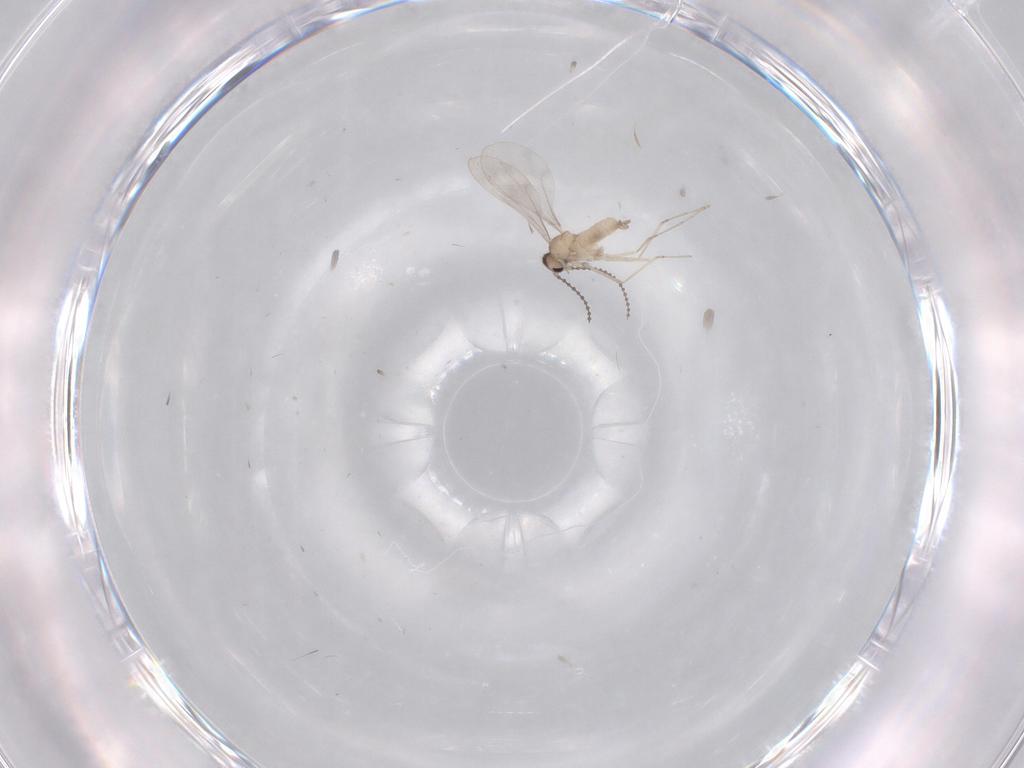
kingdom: Animalia
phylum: Arthropoda
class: Insecta
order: Diptera
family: Cecidomyiidae
